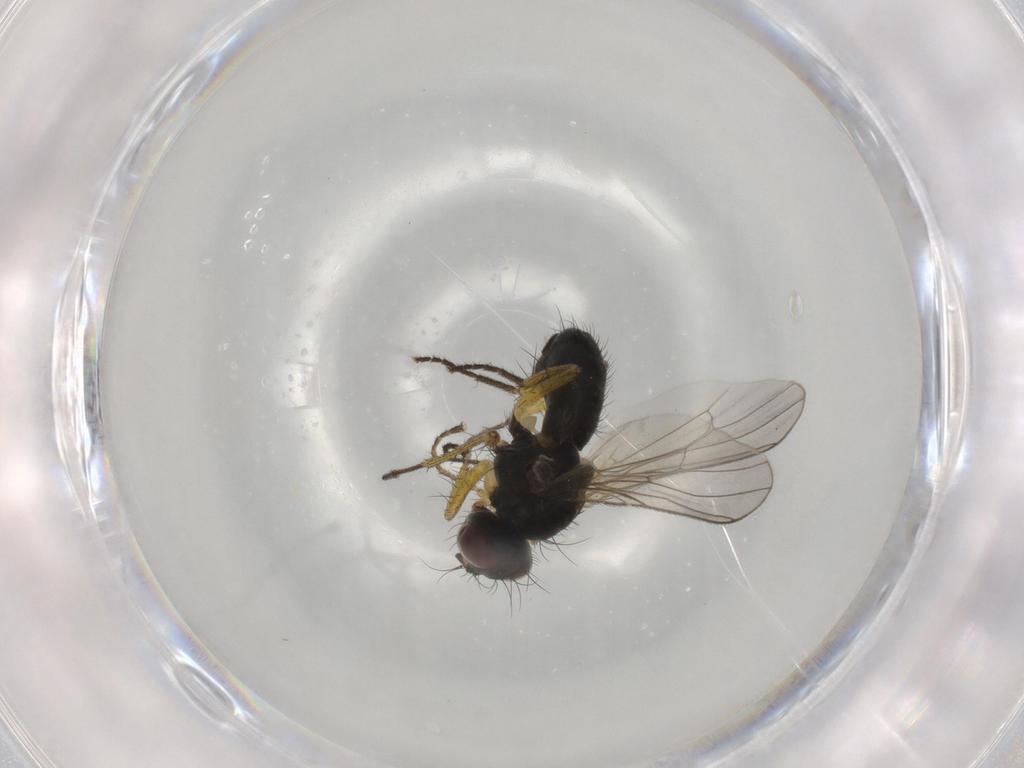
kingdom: Animalia
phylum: Arthropoda
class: Insecta
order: Diptera
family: Muscidae
